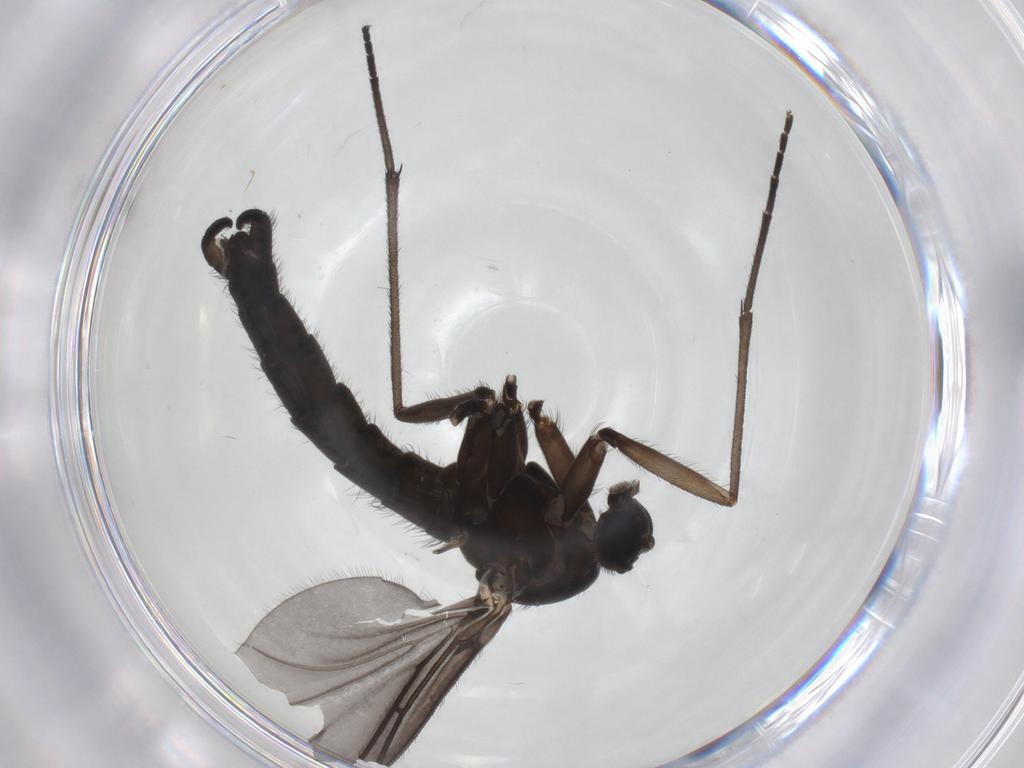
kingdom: Animalia
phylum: Arthropoda
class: Insecta
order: Diptera
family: Sciaridae
